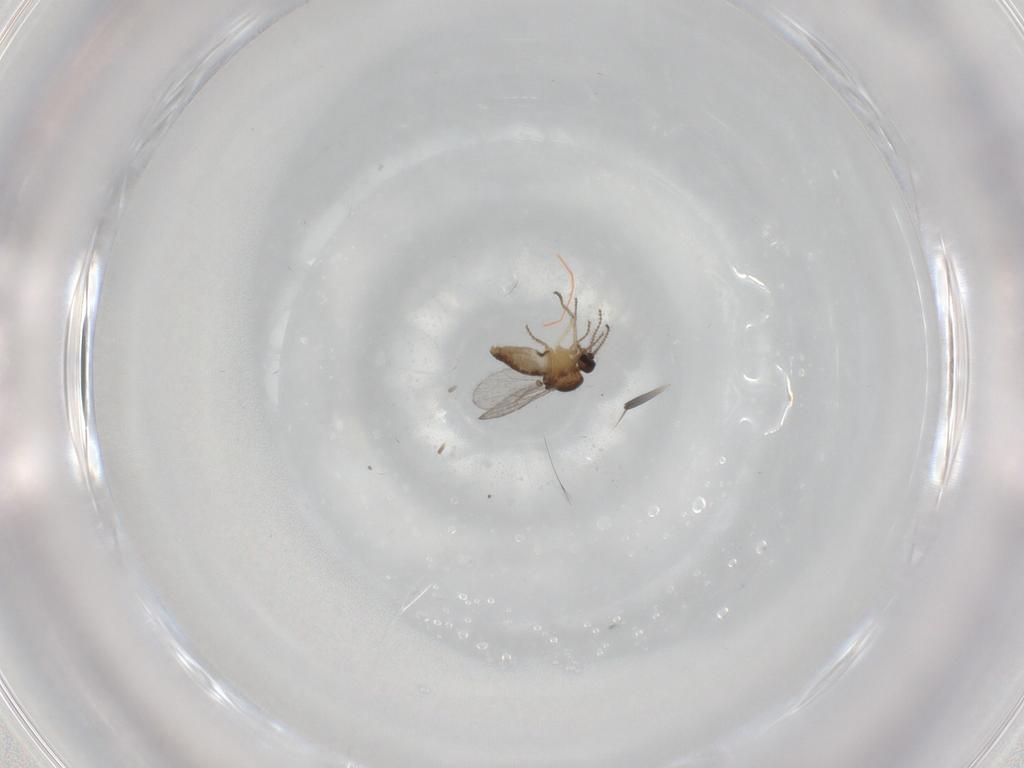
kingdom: Animalia
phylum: Arthropoda
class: Insecta
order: Diptera
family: Ceratopogonidae
